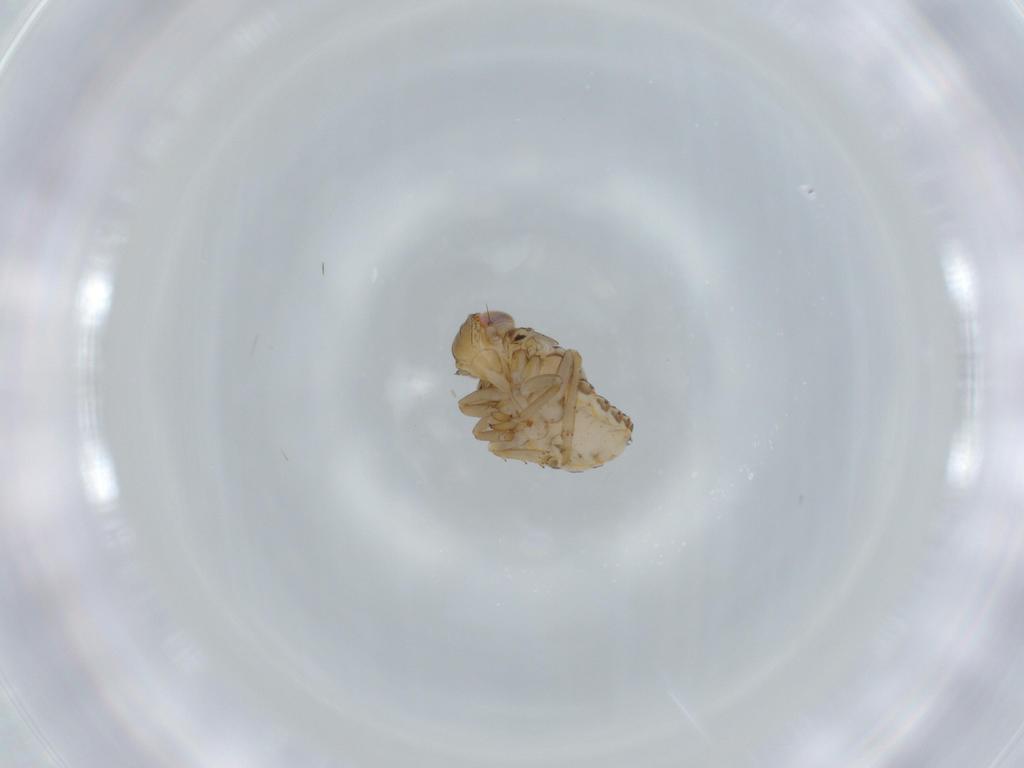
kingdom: Animalia
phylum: Arthropoda
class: Insecta
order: Hemiptera
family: Issidae
